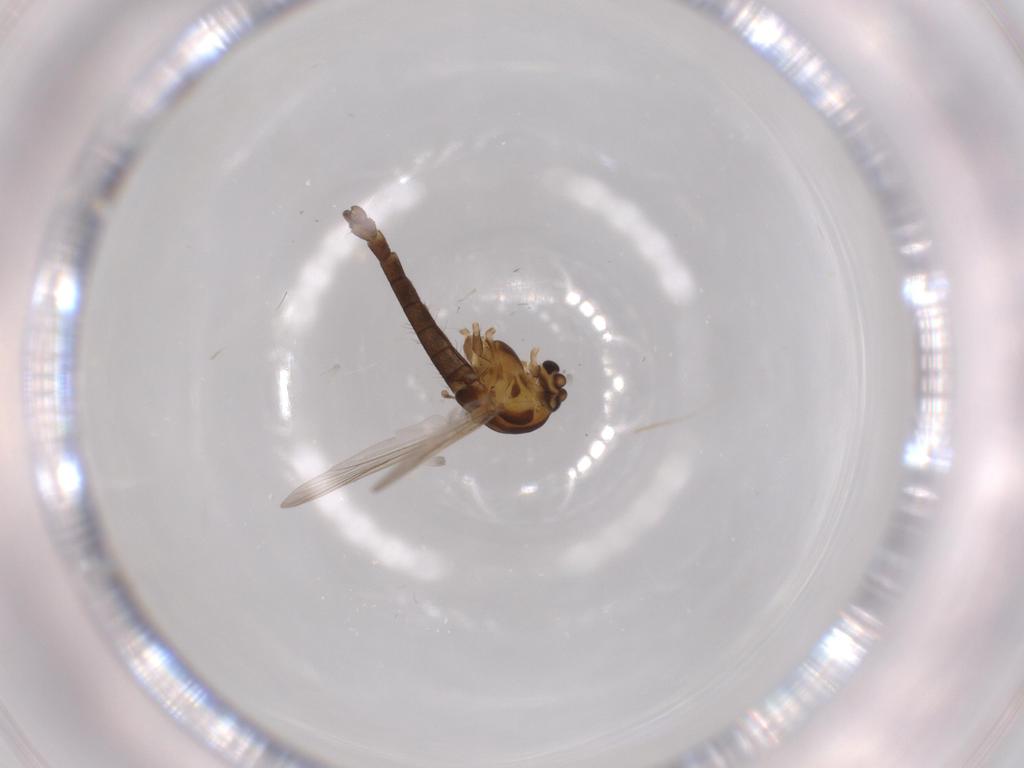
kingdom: Animalia
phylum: Arthropoda
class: Insecta
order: Diptera
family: Chironomidae
